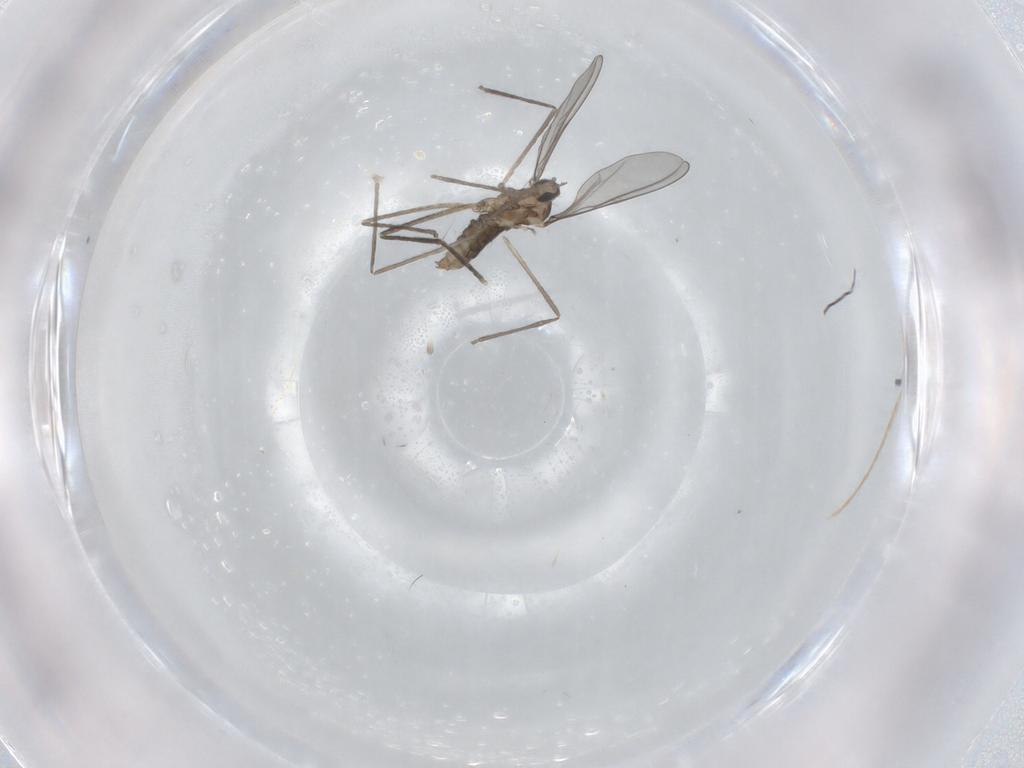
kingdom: Animalia
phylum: Arthropoda
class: Insecta
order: Diptera
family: Cecidomyiidae
